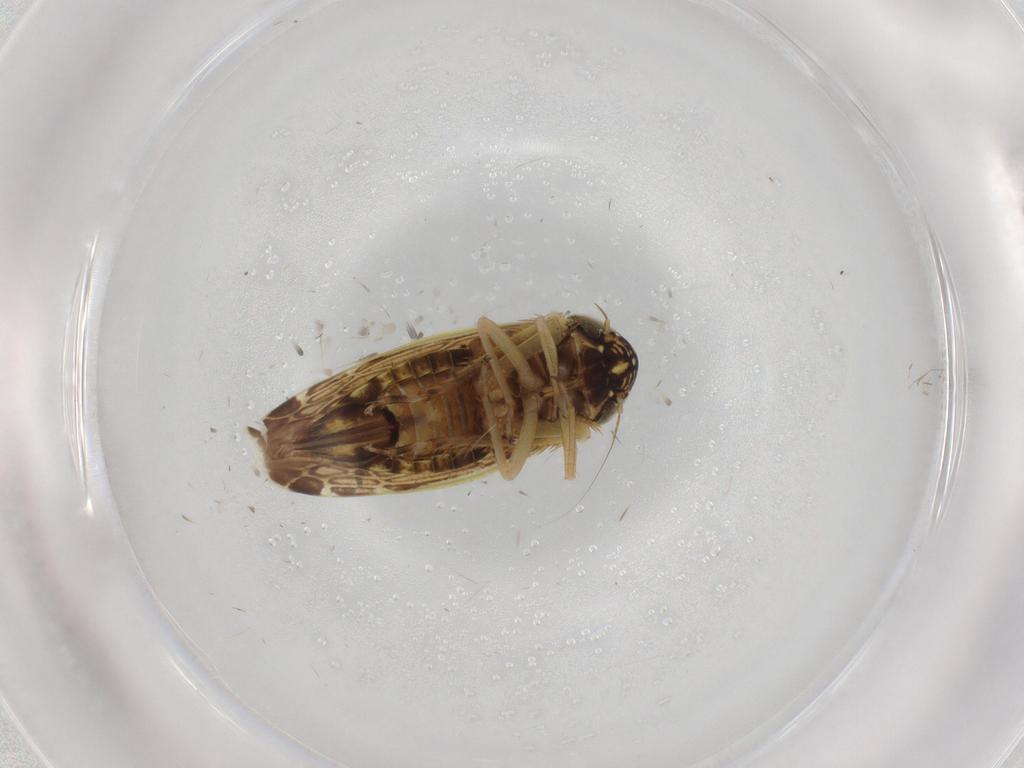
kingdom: Animalia
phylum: Arthropoda
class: Insecta
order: Hemiptera
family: Cicadellidae
